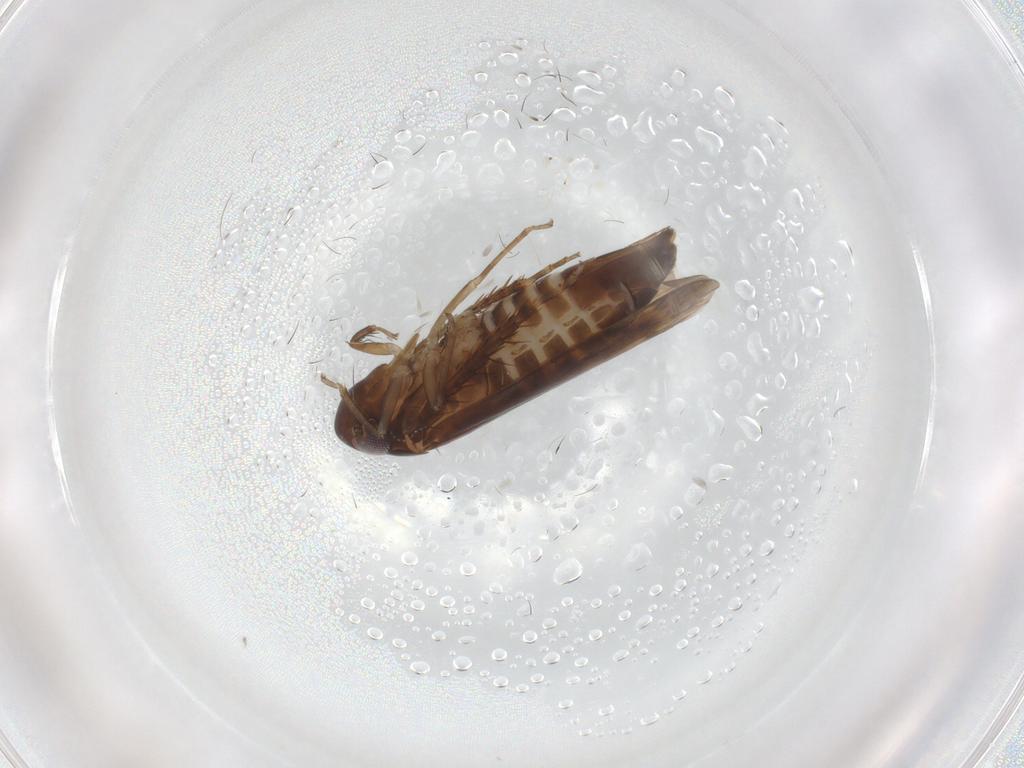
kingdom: Animalia
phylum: Arthropoda
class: Insecta
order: Hemiptera
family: Cicadellidae
